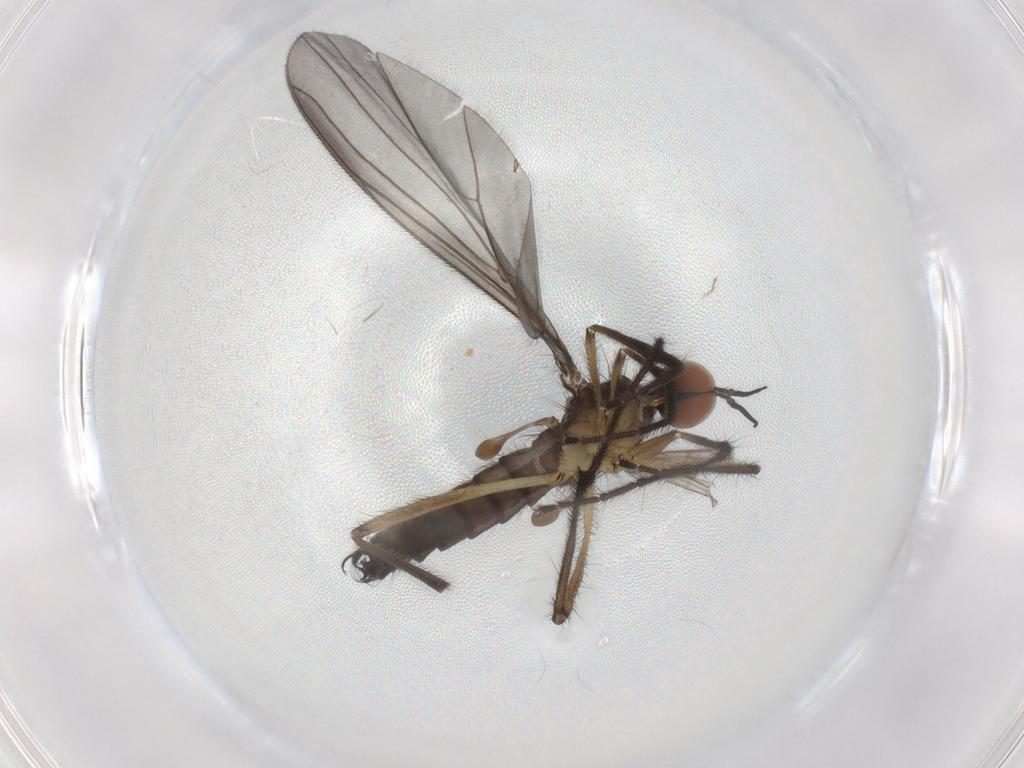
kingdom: Animalia
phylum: Arthropoda
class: Insecta
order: Diptera
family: Empididae
